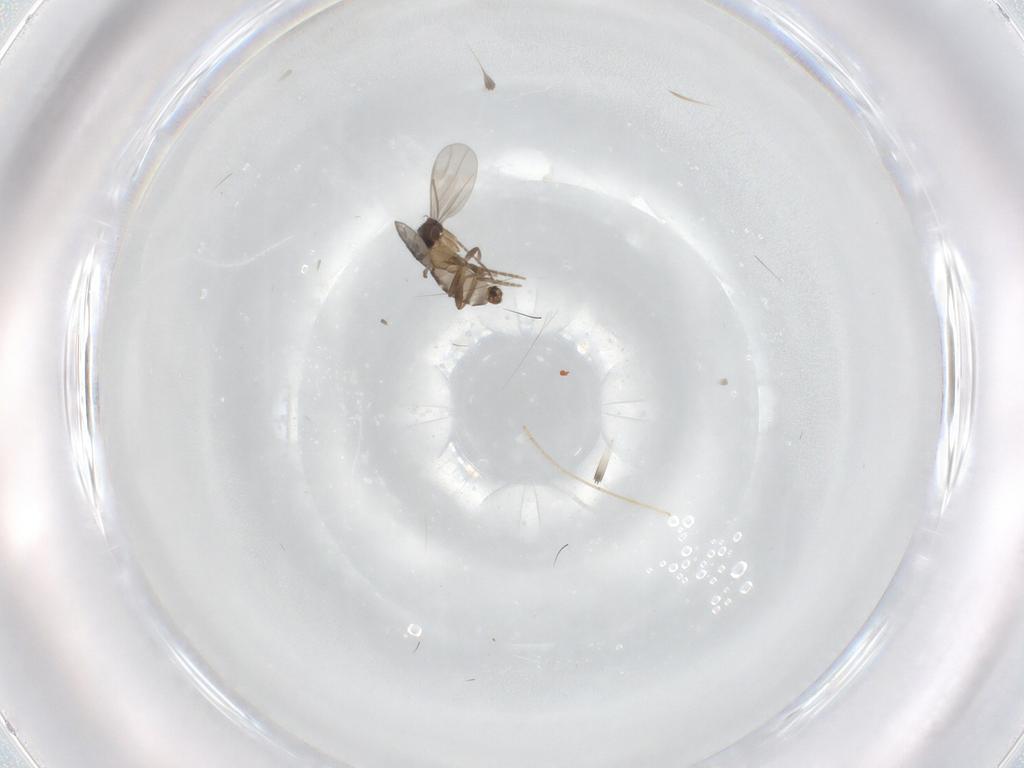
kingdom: Animalia
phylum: Arthropoda
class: Insecta
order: Diptera
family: Chironomidae
